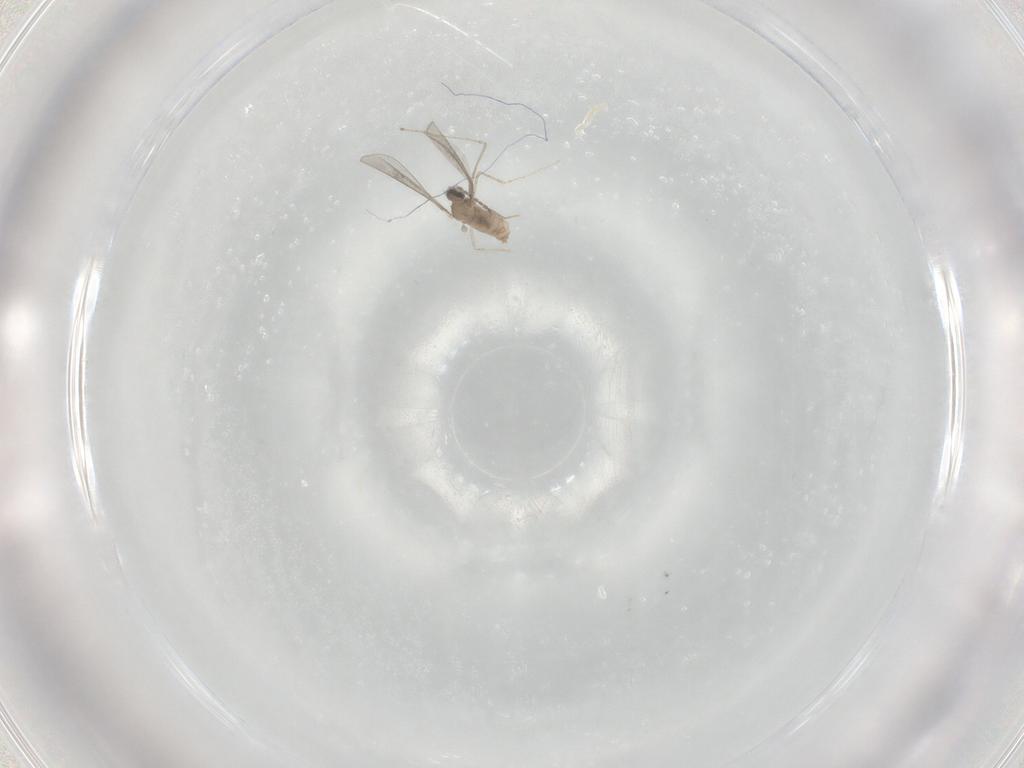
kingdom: Animalia
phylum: Arthropoda
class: Insecta
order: Diptera
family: Cecidomyiidae
